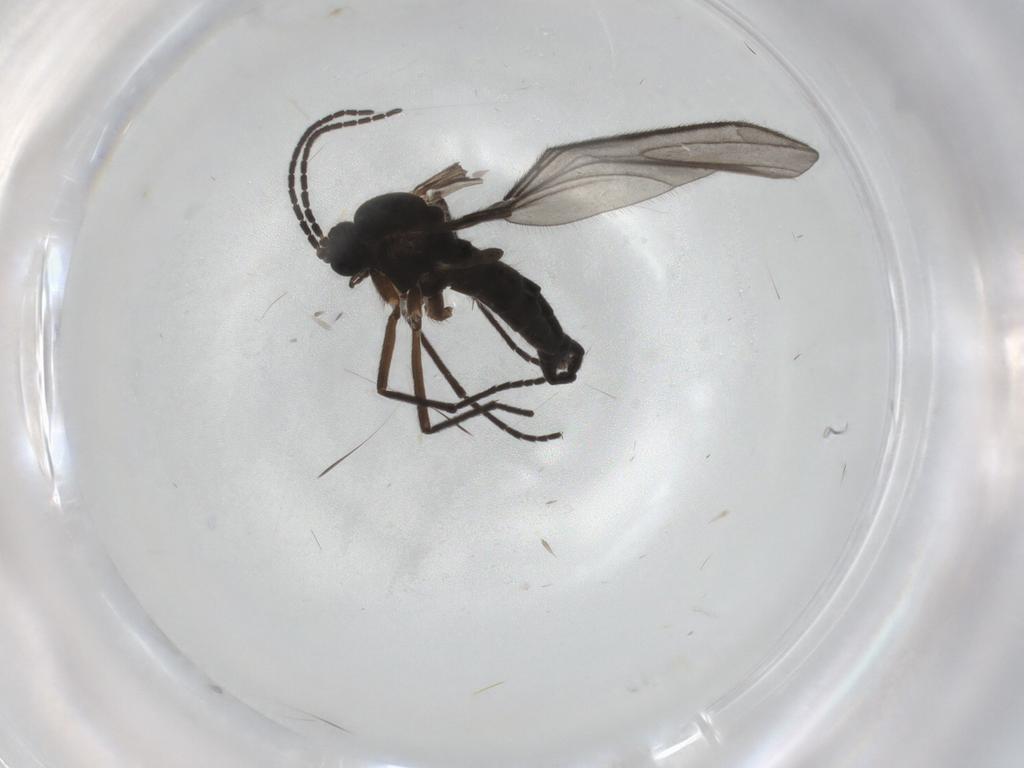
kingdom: Animalia
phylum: Arthropoda
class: Insecta
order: Diptera
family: Sciaridae
